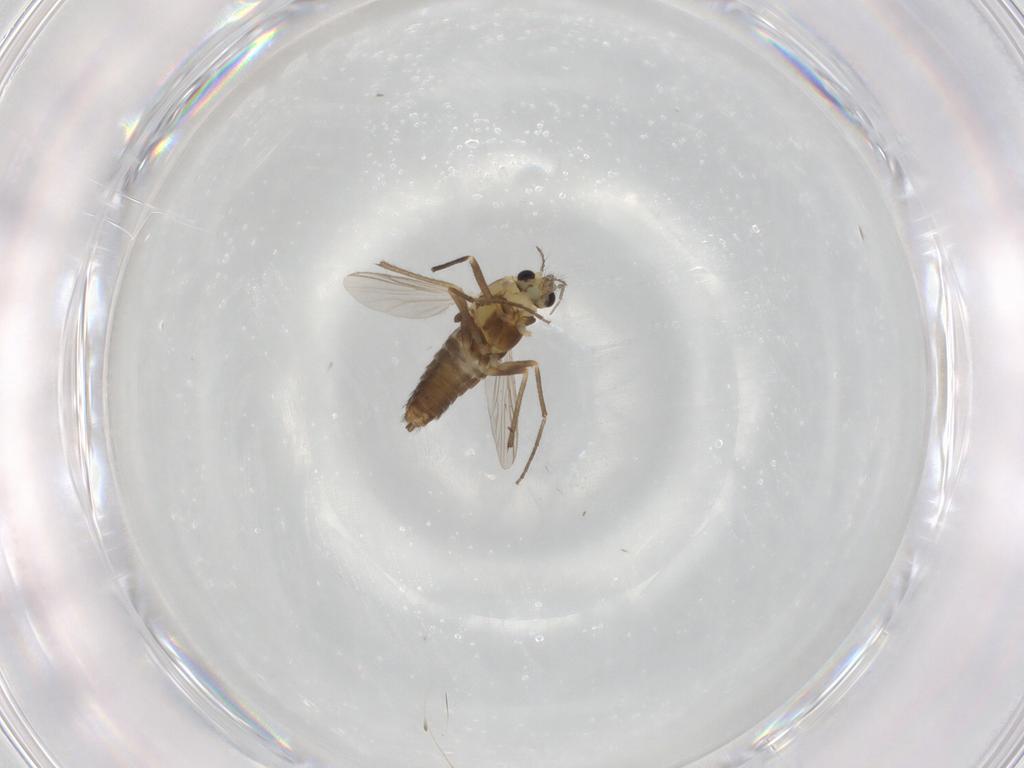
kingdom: Animalia
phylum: Arthropoda
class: Insecta
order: Diptera
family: Chironomidae
